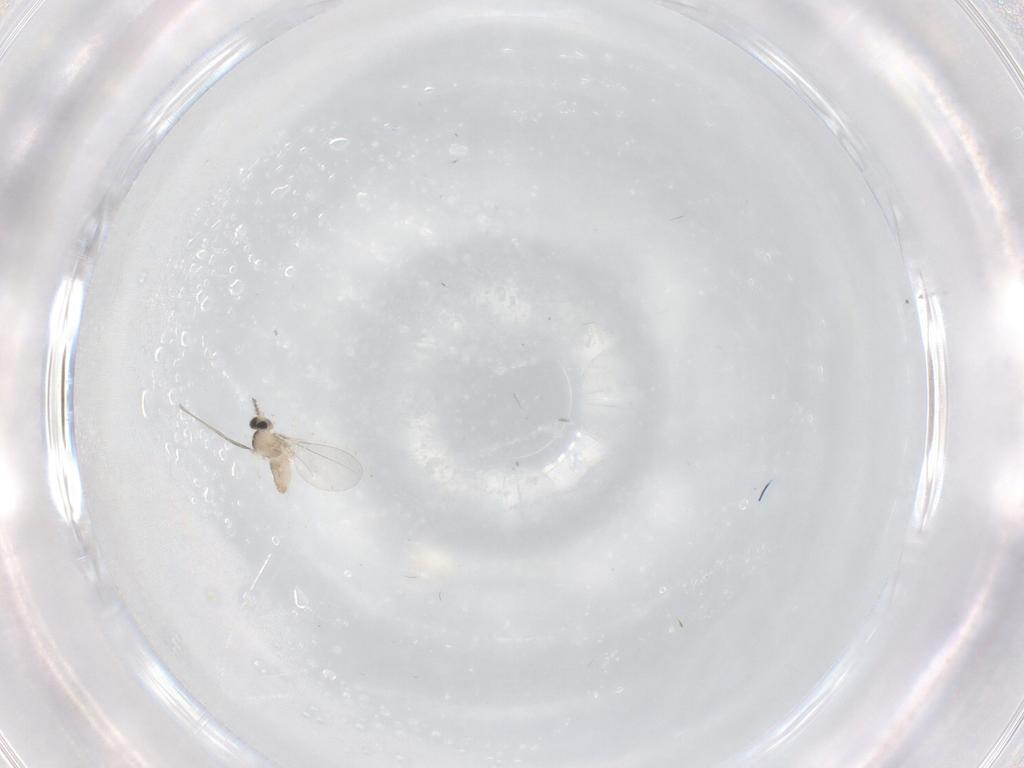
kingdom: Animalia
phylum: Arthropoda
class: Insecta
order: Diptera
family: Cecidomyiidae
